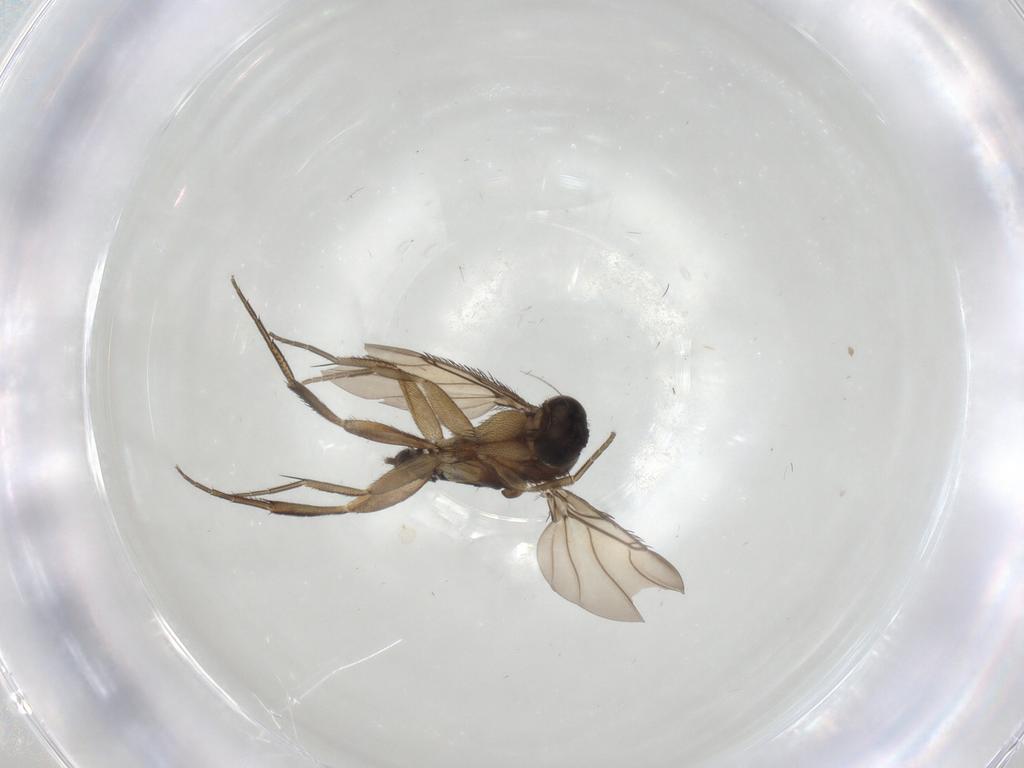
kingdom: Animalia
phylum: Arthropoda
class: Insecta
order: Diptera
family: Phoridae
